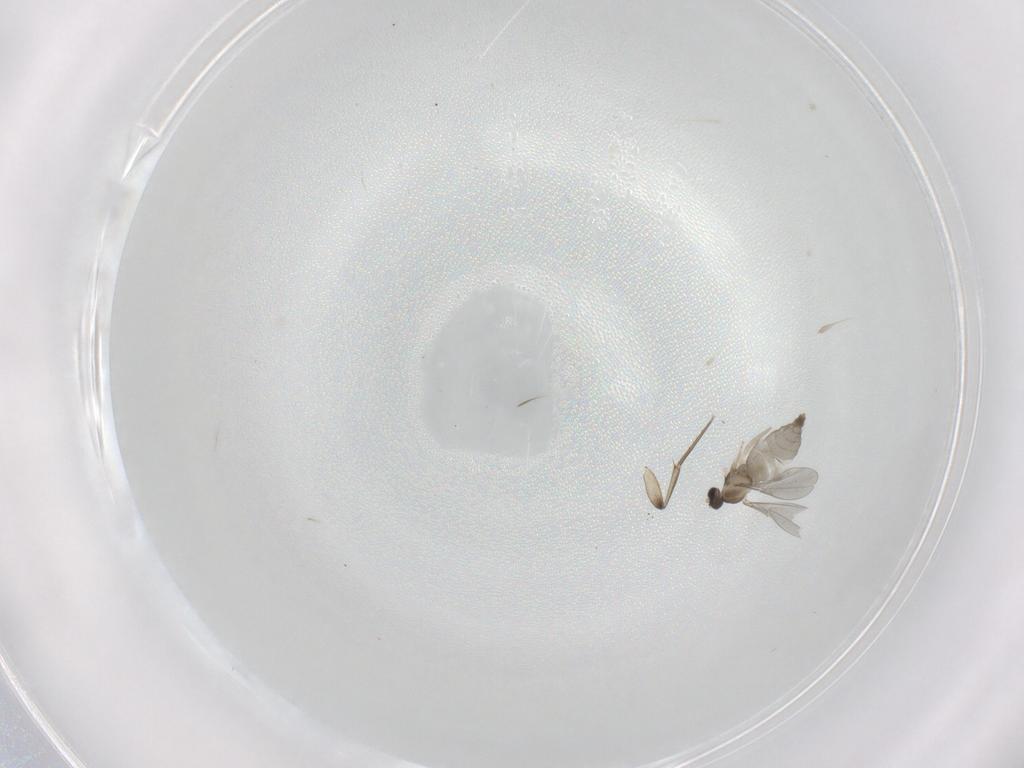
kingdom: Animalia
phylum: Arthropoda
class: Insecta
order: Diptera
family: Cecidomyiidae
